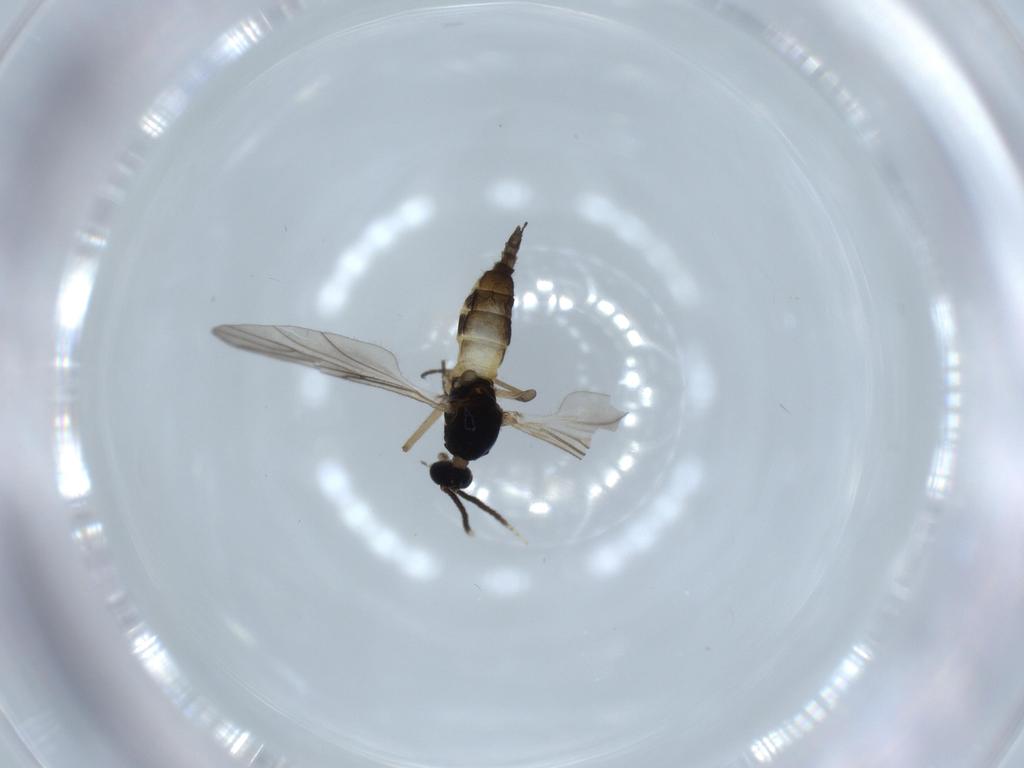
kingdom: Animalia
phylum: Arthropoda
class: Insecta
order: Diptera
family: Sciaridae
